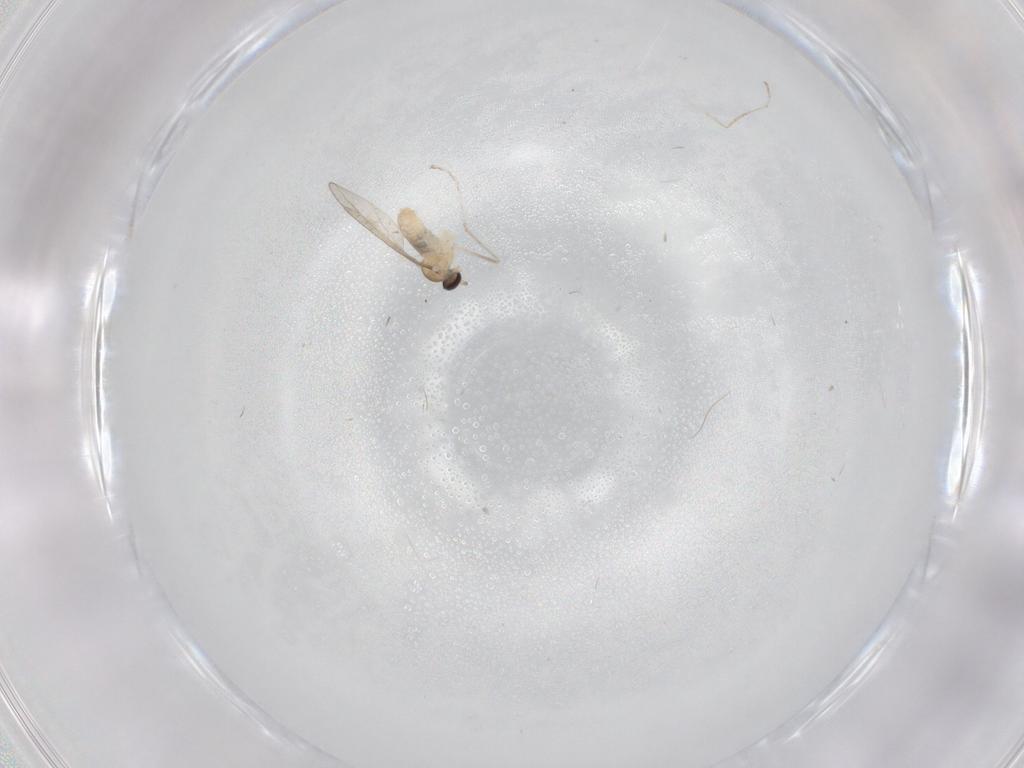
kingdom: Animalia
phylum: Arthropoda
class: Insecta
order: Diptera
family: Cecidomyiidae
